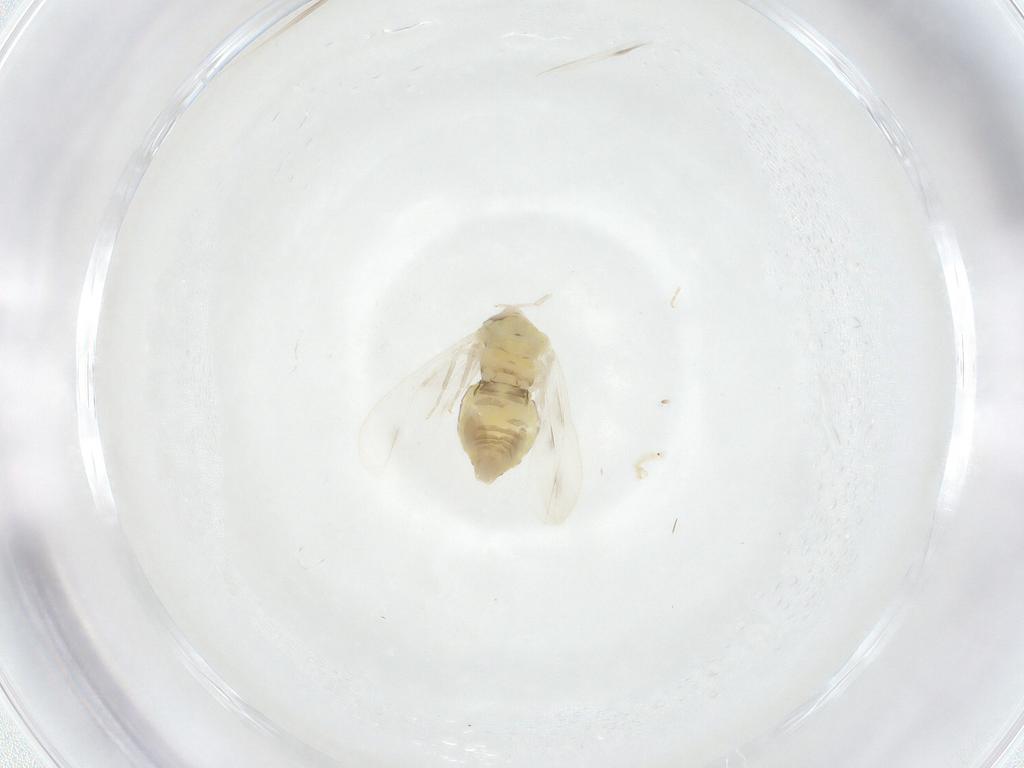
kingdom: Animalia
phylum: Arthropoda
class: Insecta
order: Hemiptera
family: Aleyrodidae
